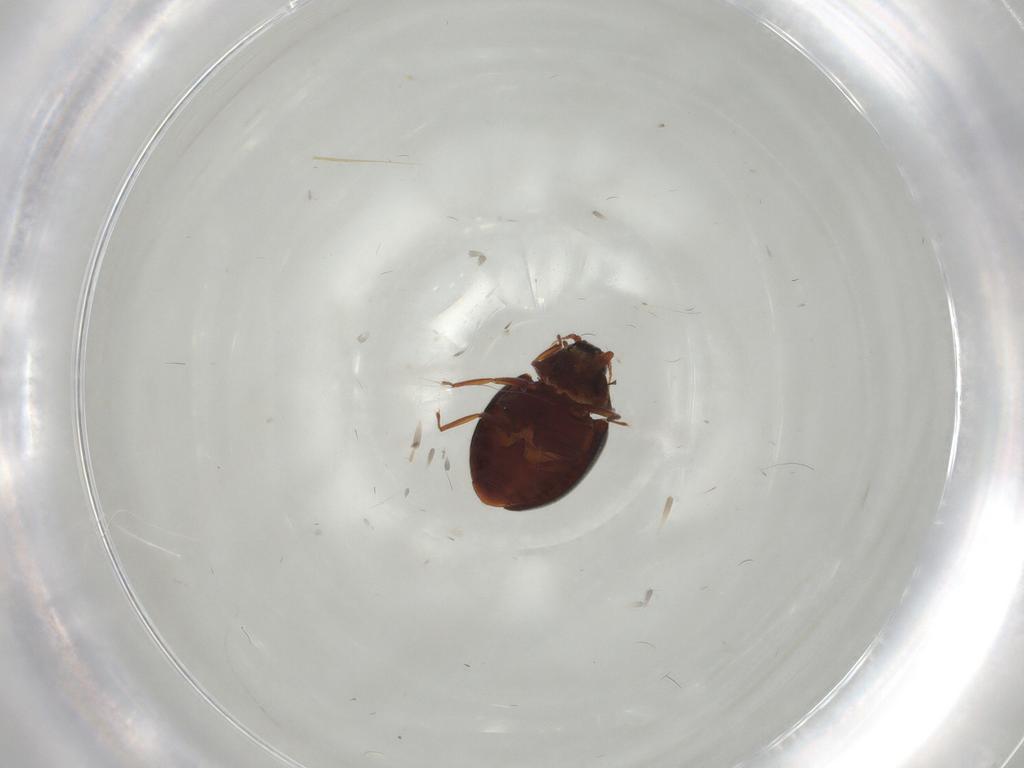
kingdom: Animalia
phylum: Arthropoda
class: Insecta
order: Coleoptera
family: Limnichidae
